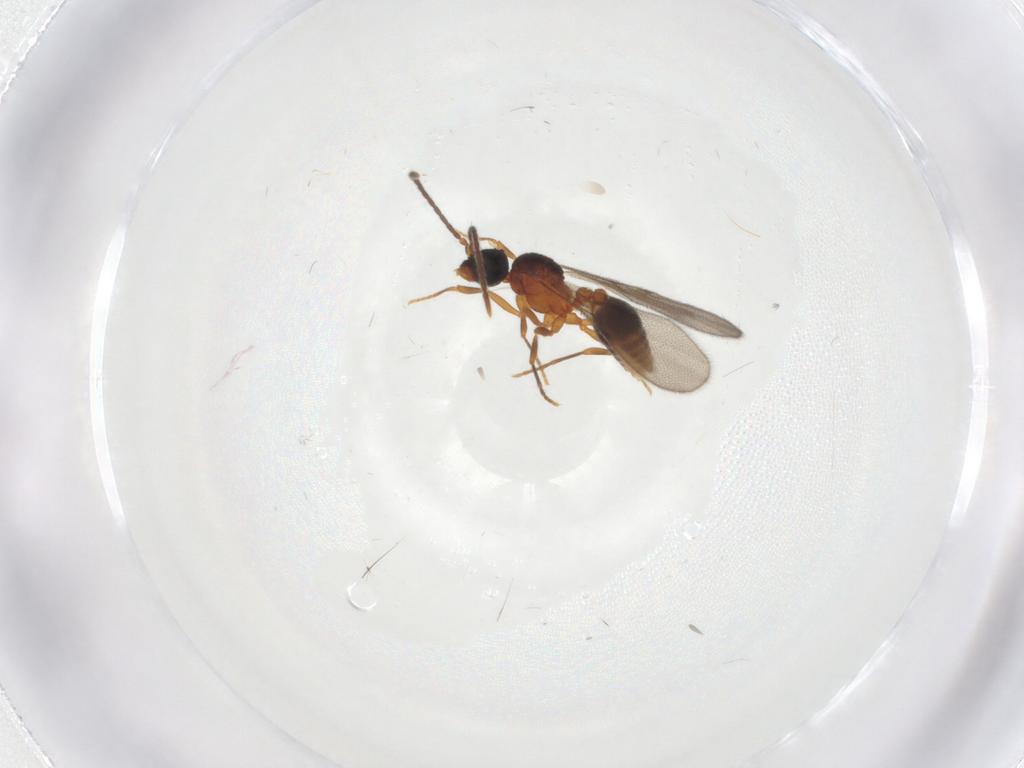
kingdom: Animalia
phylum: Arthropoda
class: Insecta
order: Hymenoptera
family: Formicidae
